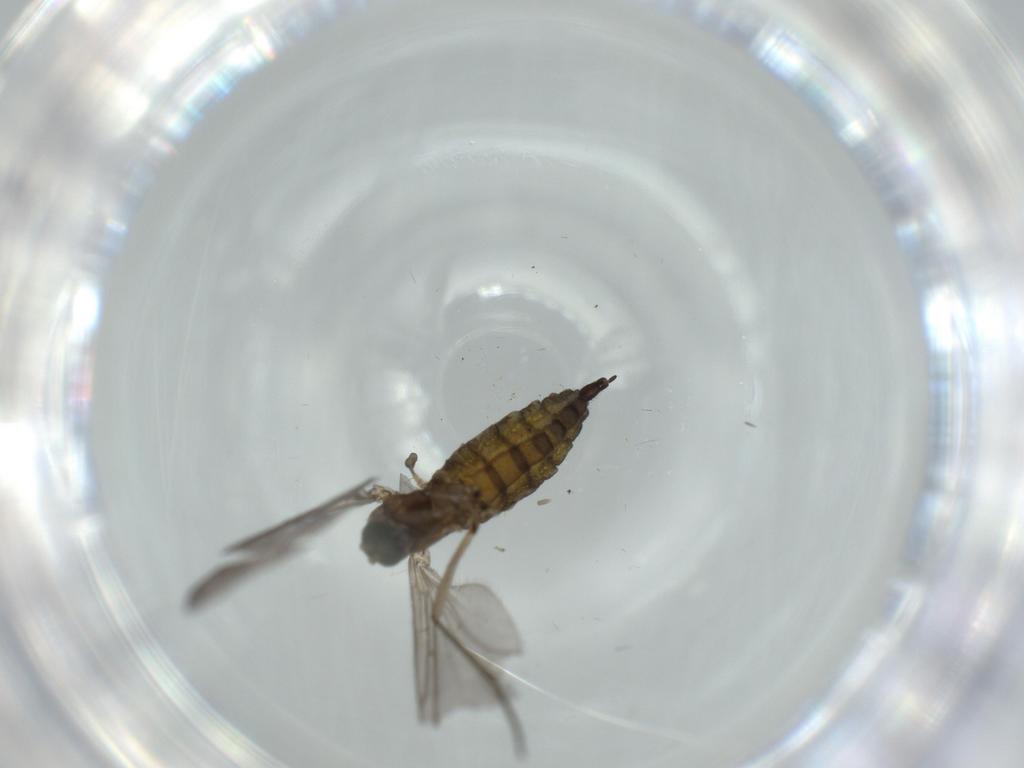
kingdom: Animalia
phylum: Arthropoda
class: Insecta
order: Diptera
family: Sciaridae
